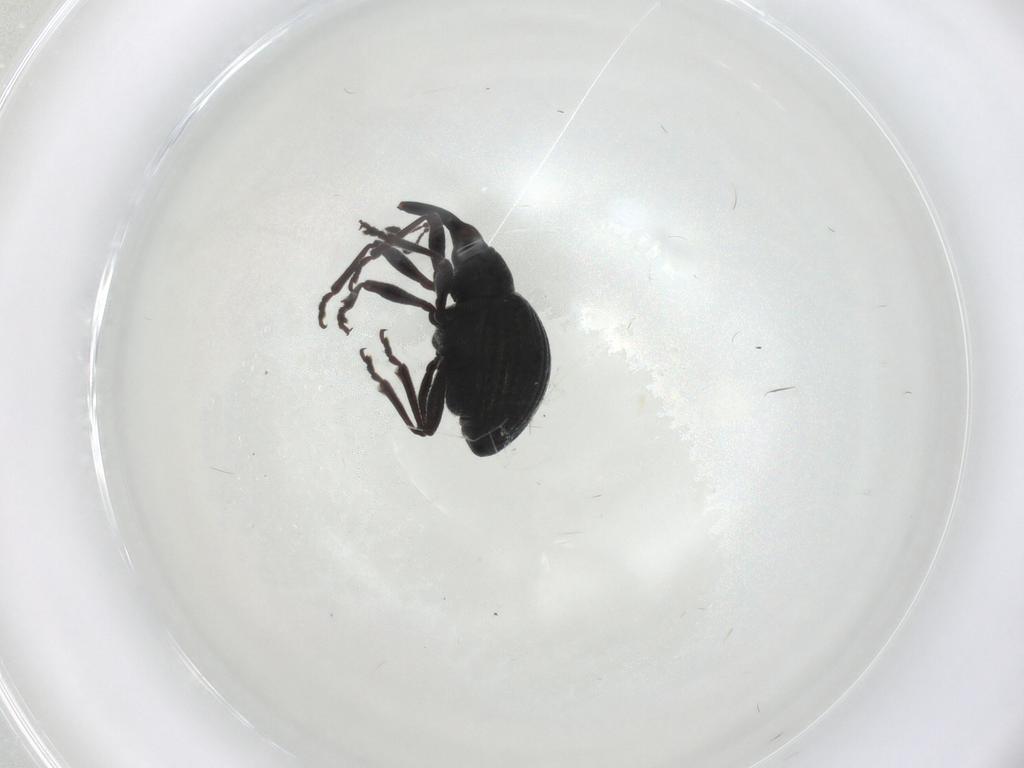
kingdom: Animalia
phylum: Arthropoda
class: Insecta
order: Coleoptera
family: Brentidae
